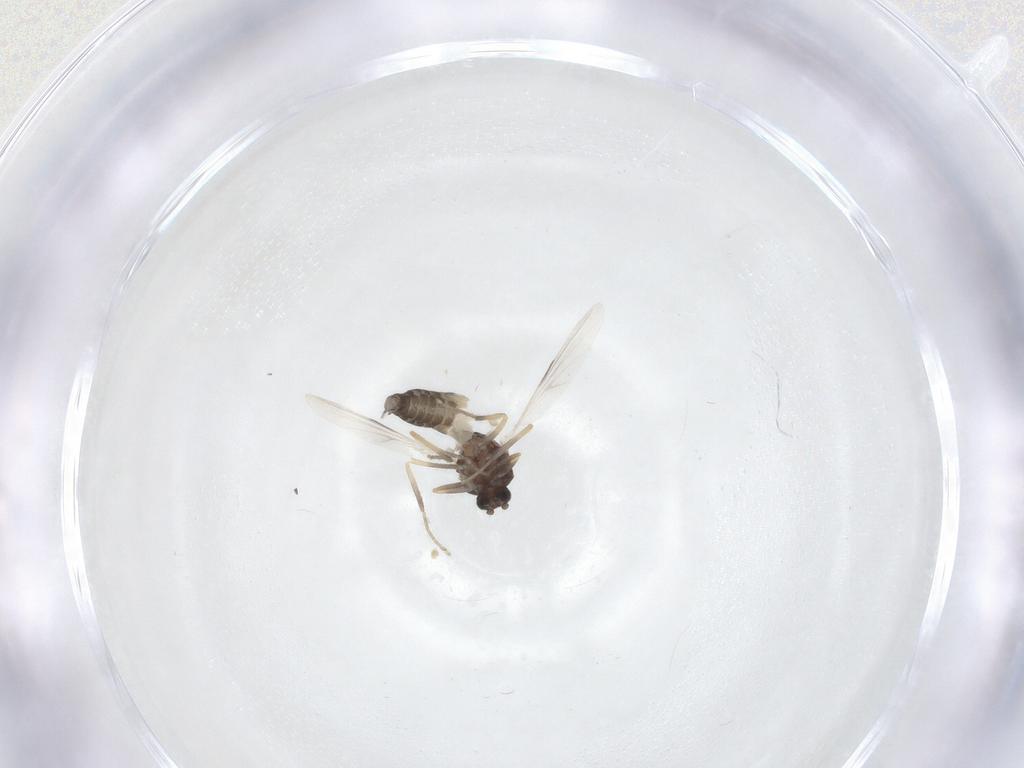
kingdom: Animalia
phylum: Arthropoda
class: Insecta
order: Diptera
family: Ceratopogonidae
